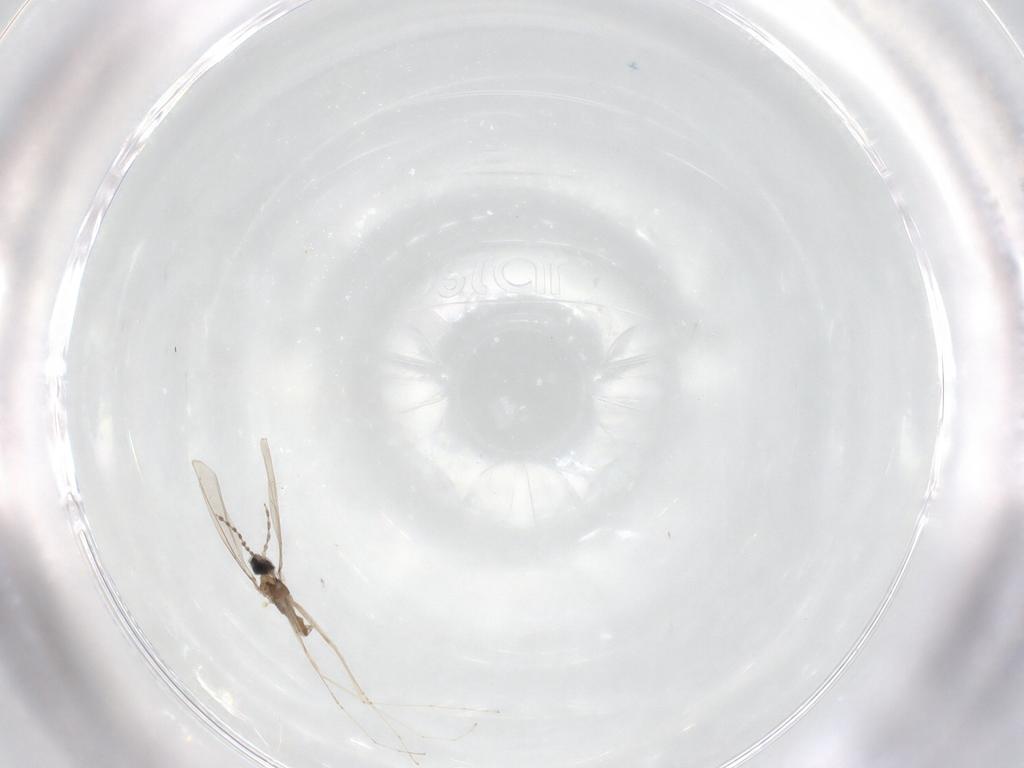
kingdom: Animalia
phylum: Arthropoda
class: Insecta
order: Diptera
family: Cecidomyiidae
